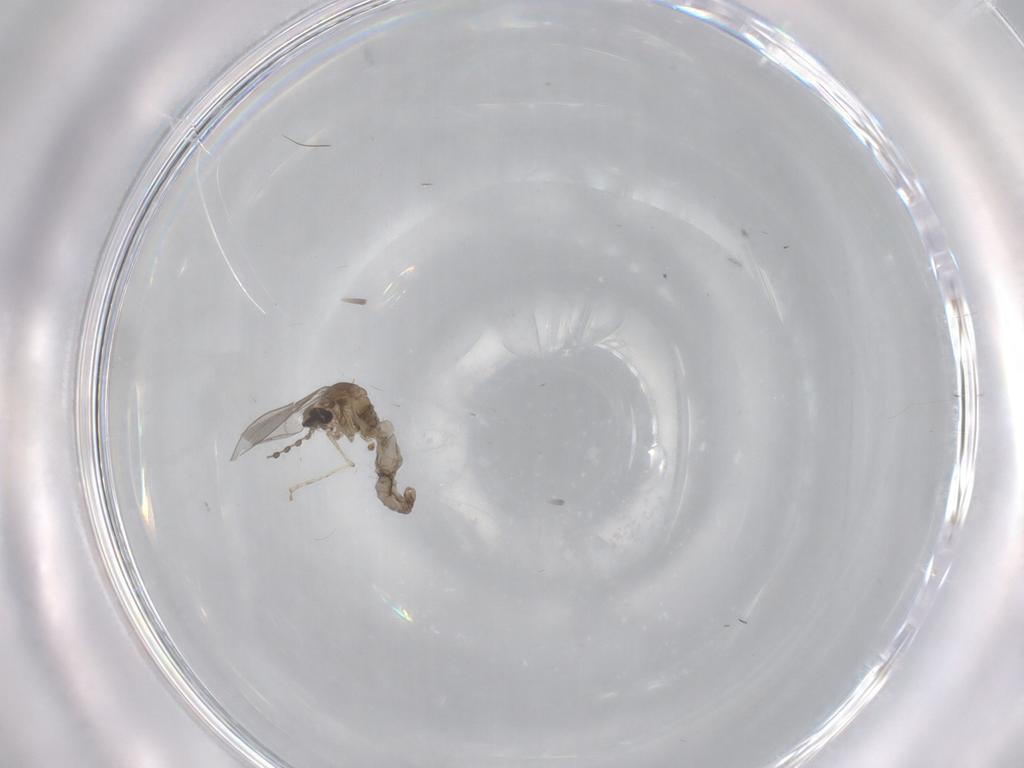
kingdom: Animalia
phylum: Arthropoda
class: Insecta
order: Diptera
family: Cecidomyiidae
